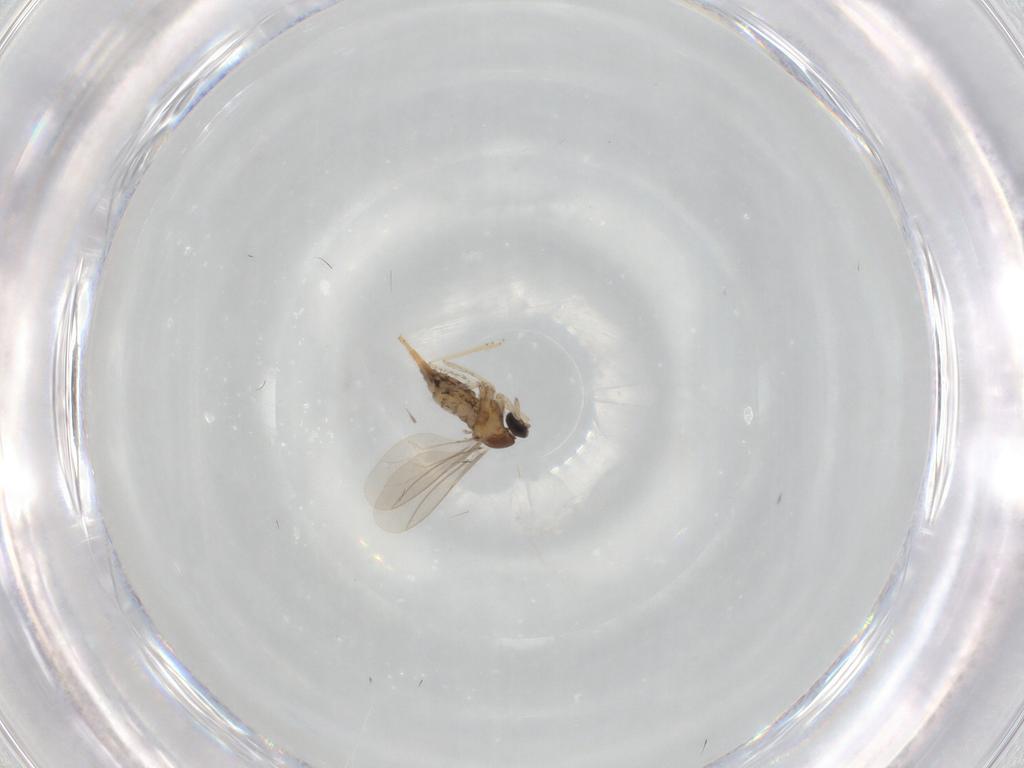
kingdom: Animalia
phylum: Arthropoda
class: Insecta
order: Diptera
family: Cecidomyiidae
